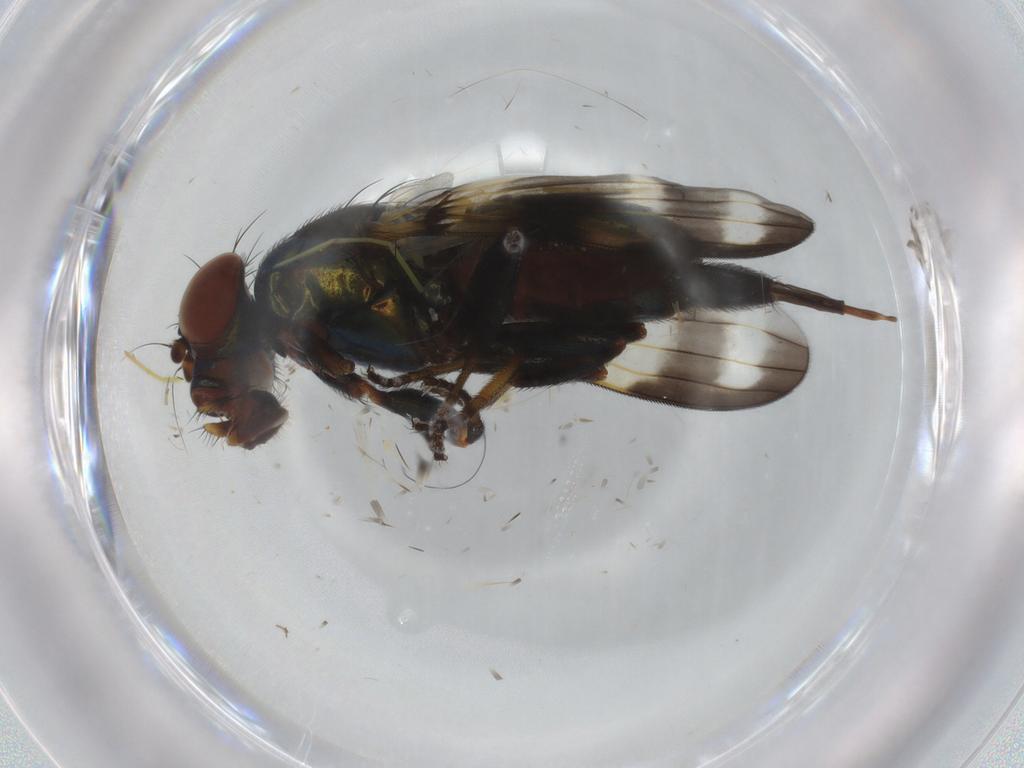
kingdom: Animalia
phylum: Arthropoda
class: Insecta
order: Diptera
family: Ulidiidae
